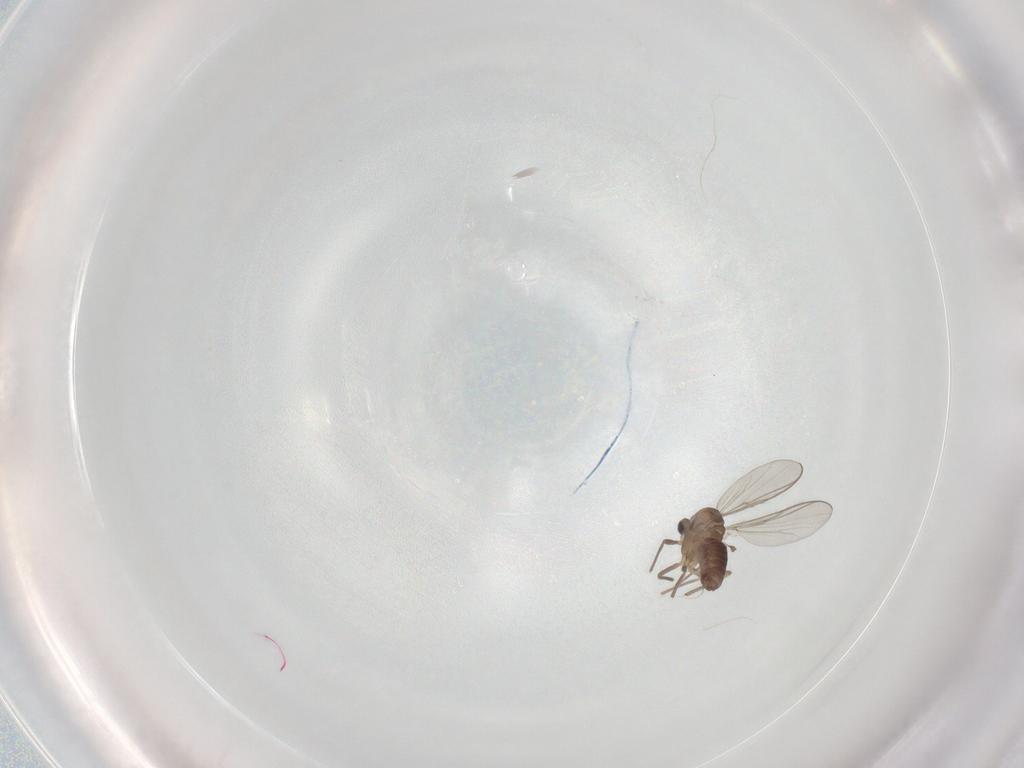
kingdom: Animalia
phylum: Arthropoda
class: Insecta
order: Diptera
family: Chironomidae
